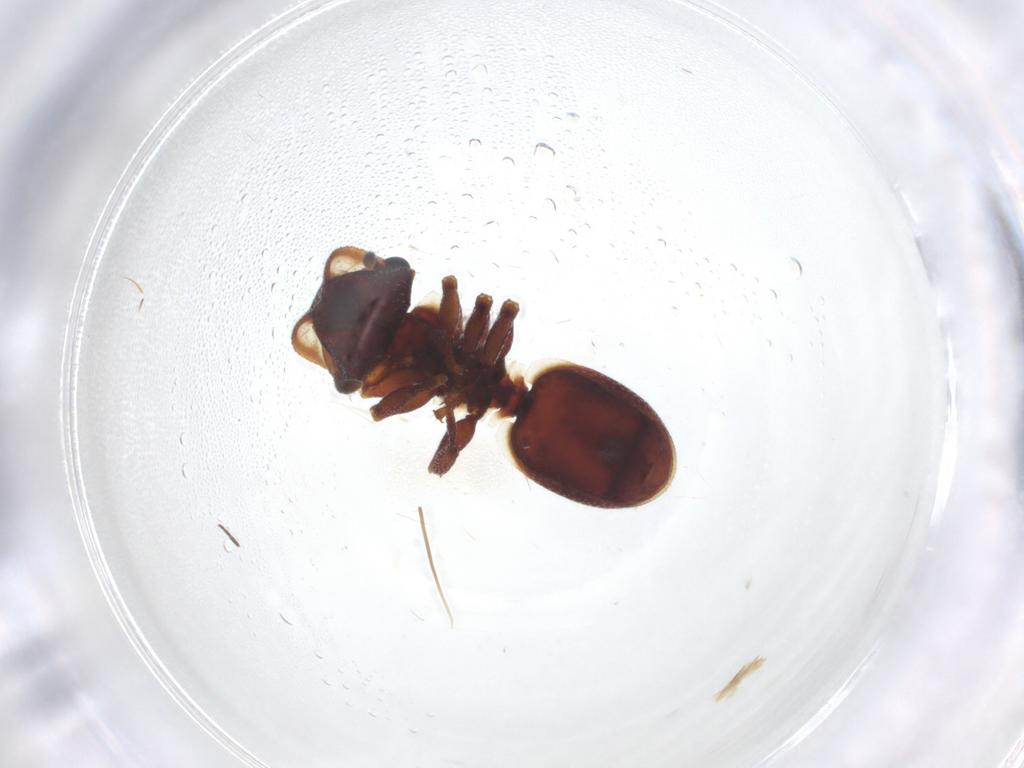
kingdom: Animalia
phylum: Arthropoda
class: Insecta
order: Hymenoptera
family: Formicidae
